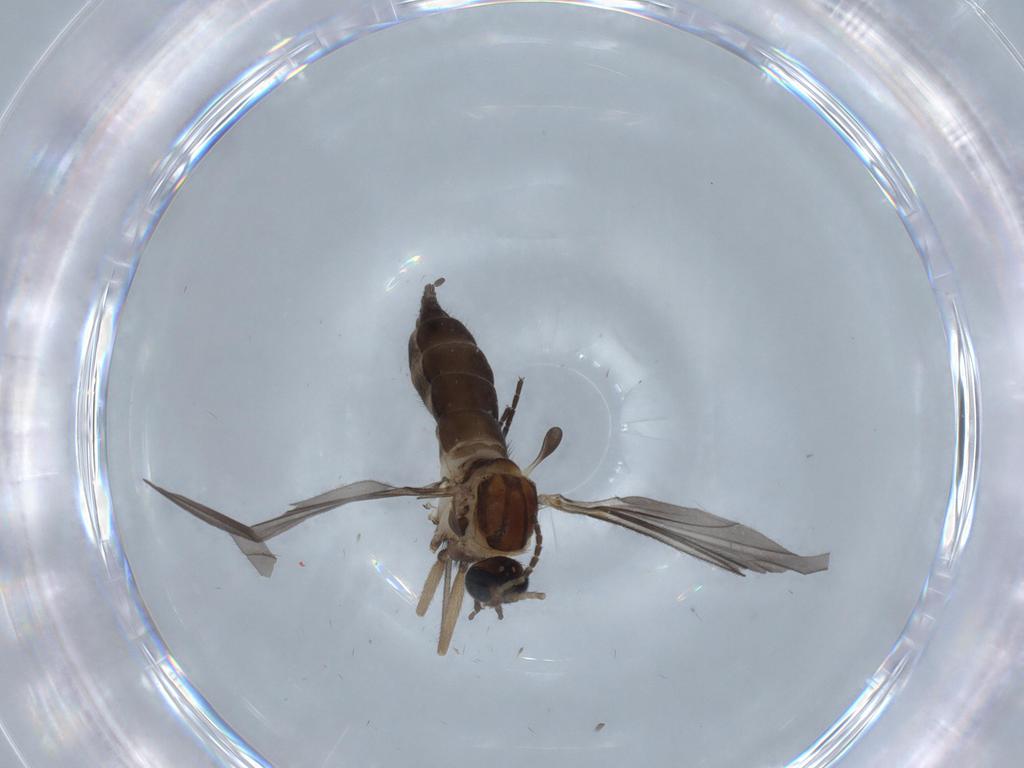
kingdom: Animalia
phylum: Arthropoda
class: Insecta
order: Diptera
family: Sciaridae
